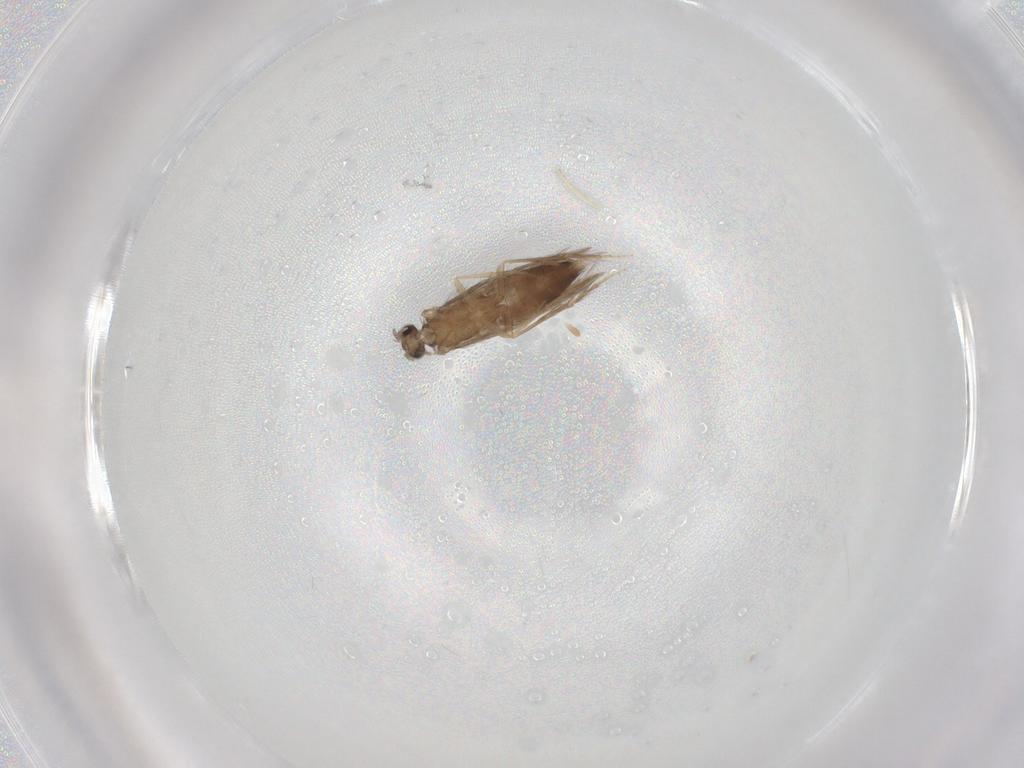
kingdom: Animalia
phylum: Arthropoda
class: Insecta
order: Trichoptera
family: Hydroptilidae
